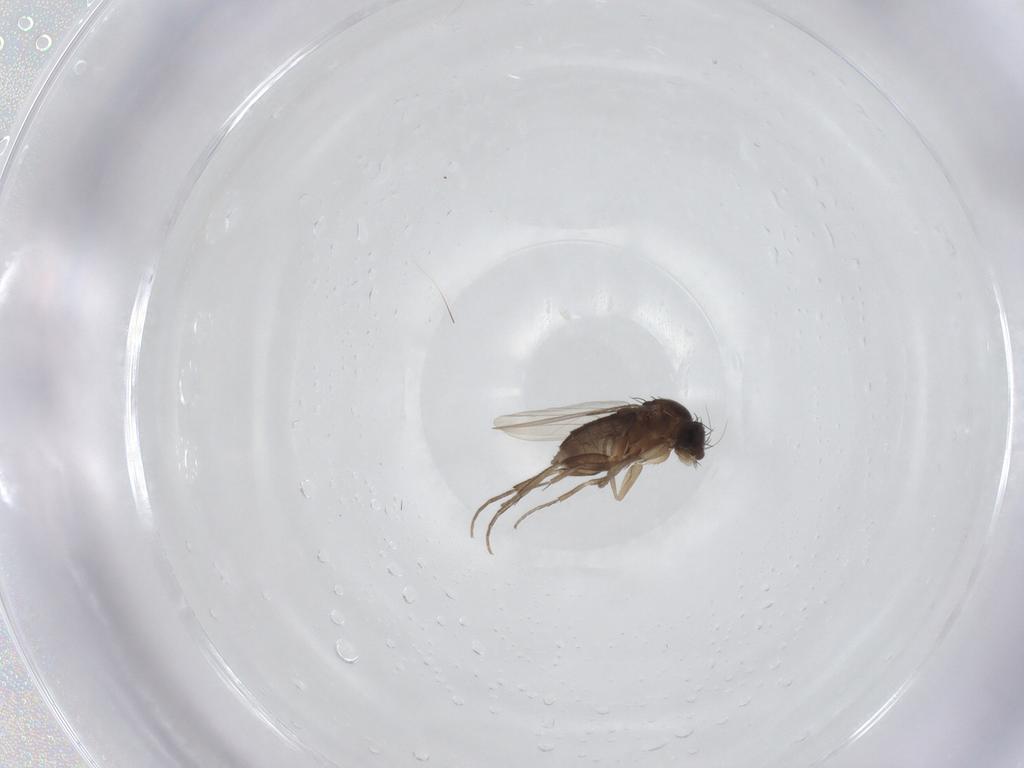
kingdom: Animalia
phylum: Arthropoda
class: Insecta
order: Diptera
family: Phoridae
